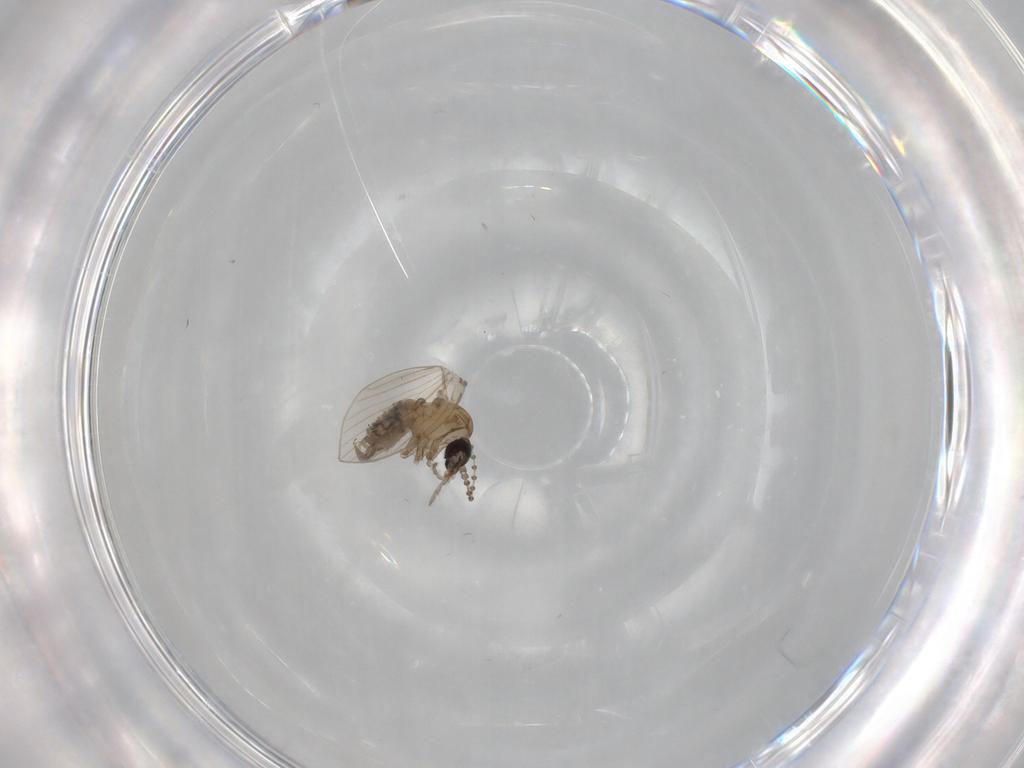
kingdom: Animalia
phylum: Arthropoda
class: Insecta
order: Diptera
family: Psychodidae
